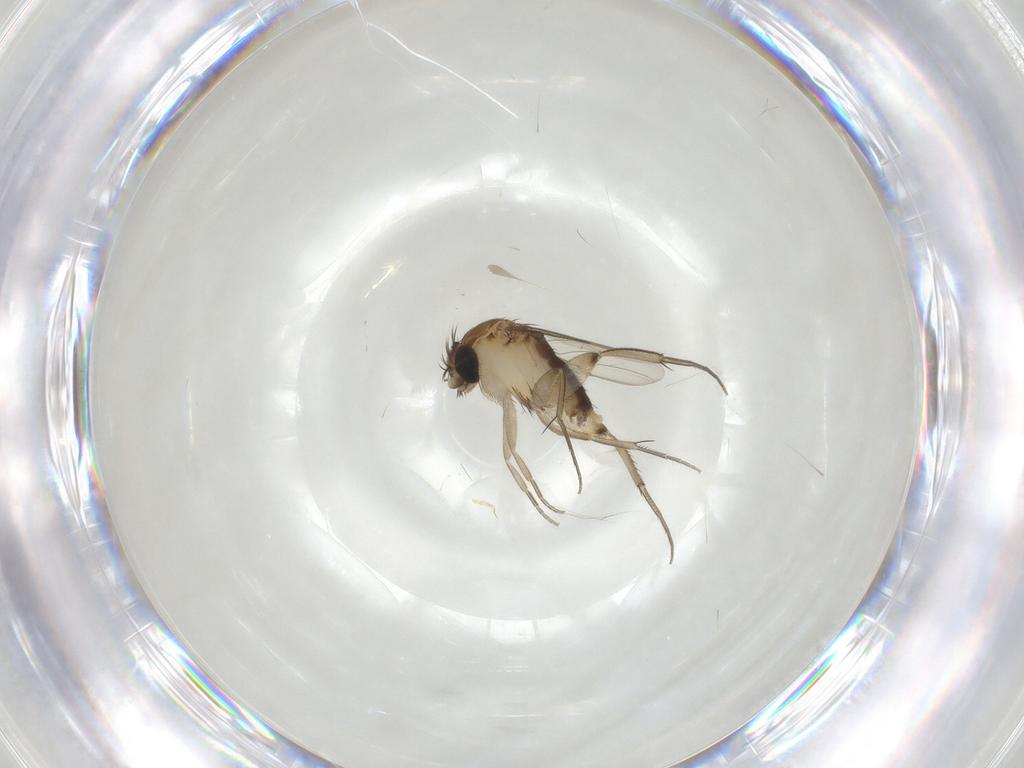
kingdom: Animalia
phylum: Arthropoda
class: Insecta
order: Diptera
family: Phoridae
